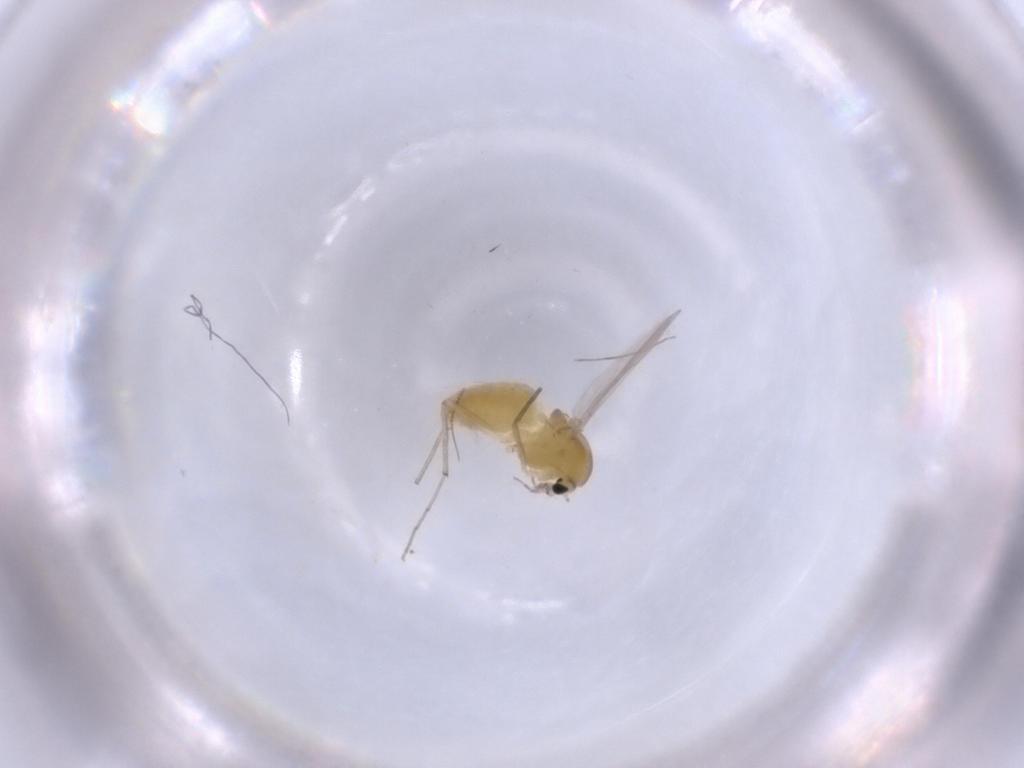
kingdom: Animalia
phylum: Arthropoda
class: Insecta
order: Diptera
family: Chironomidae
